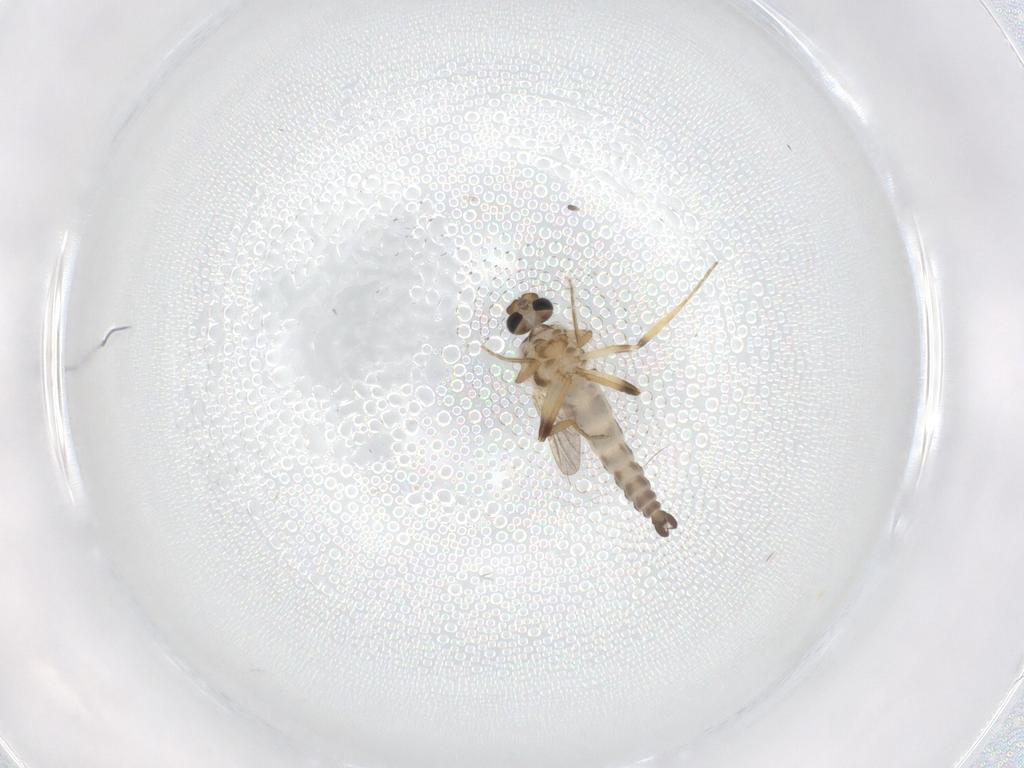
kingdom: Animalia
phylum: Arthropoda
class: Insecta
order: Diptera
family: Ceratopogonidae
